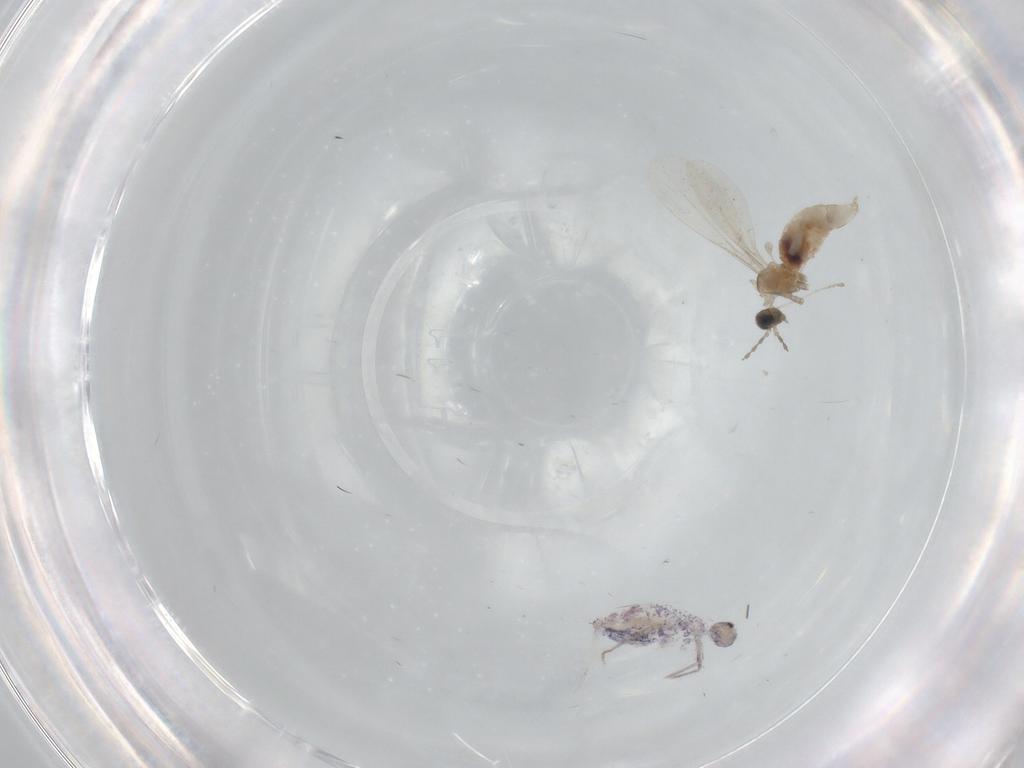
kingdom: Animalia
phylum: Arthropoda
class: Insecta
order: Diptera
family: Cecidomyiidae
